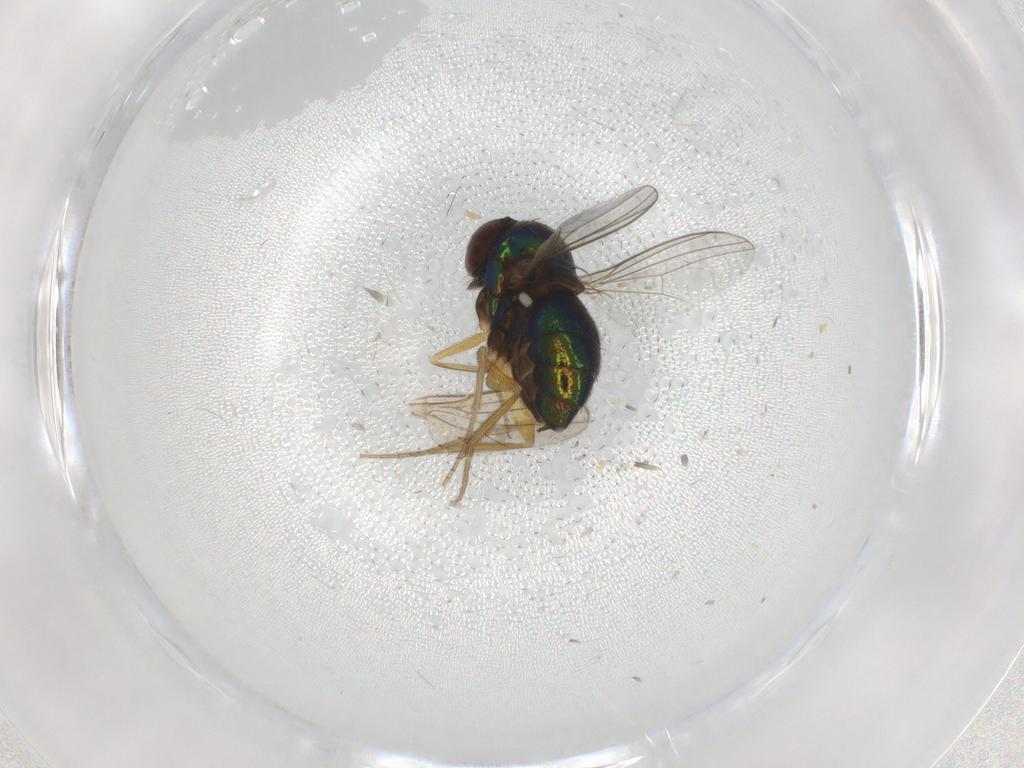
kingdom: Animalia
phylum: Arthropoda
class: Insecta
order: Diptera
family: Dolichopodidae
